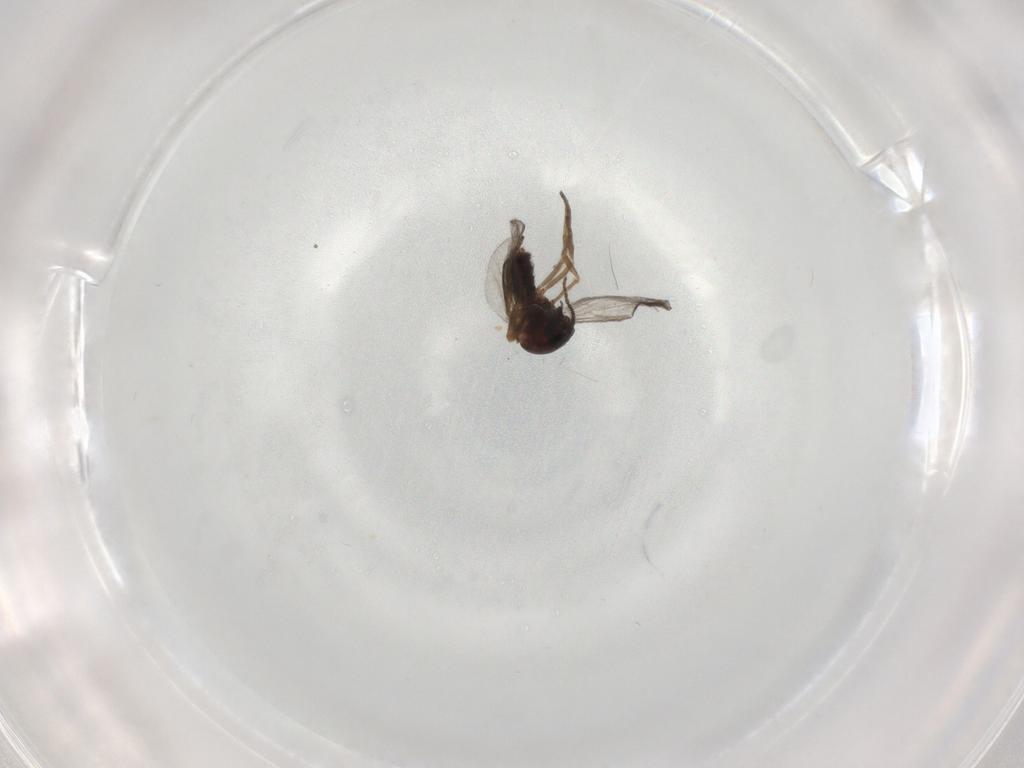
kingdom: Animalia
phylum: Arthropoda
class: Insecta
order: Diptera
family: Ceratopogonidae
